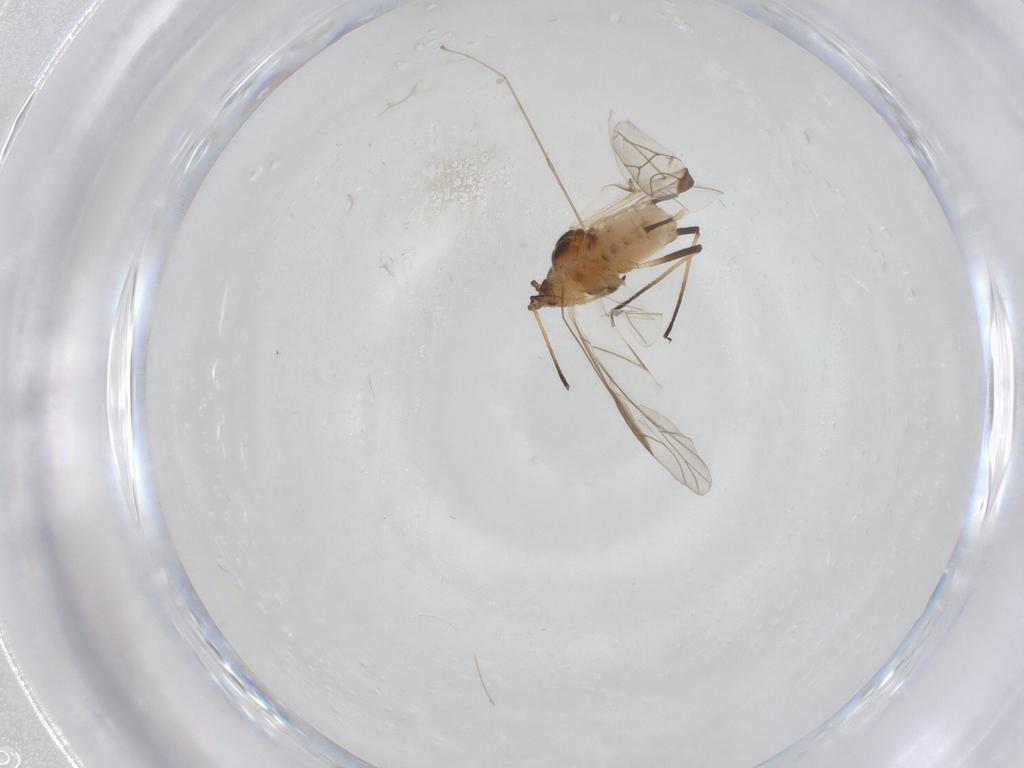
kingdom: Animalia
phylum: Arthropoda
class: Insecta
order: Hemiptera
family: Aphididae
